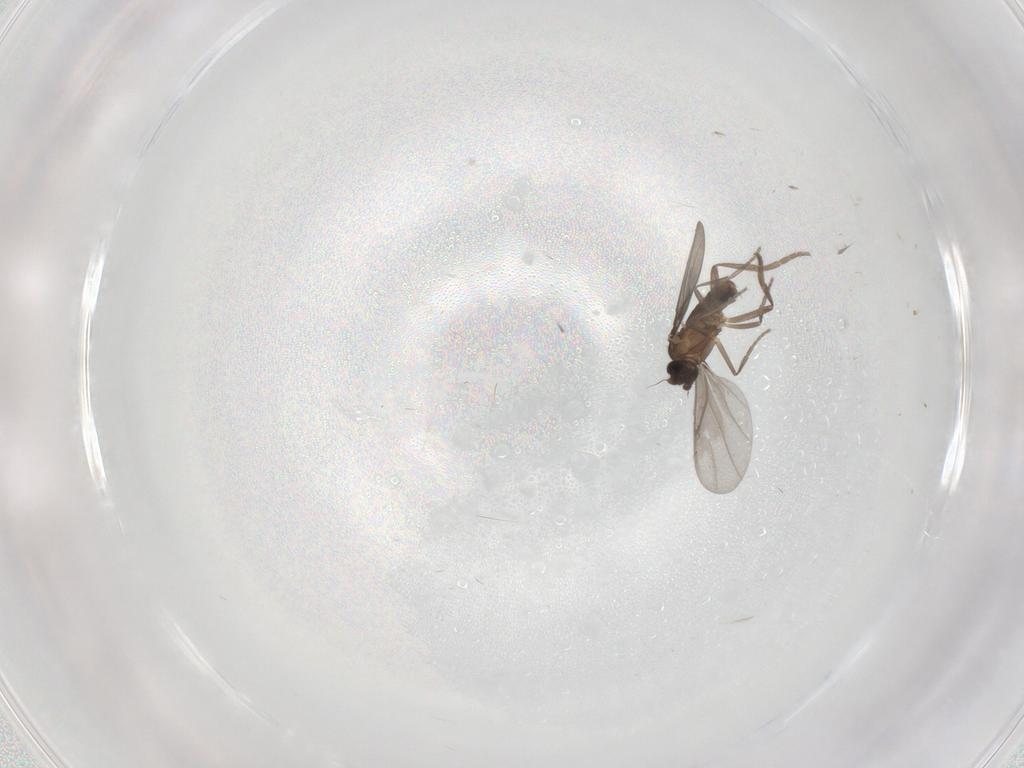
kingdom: Animalia
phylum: Arthropoda
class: Insecta
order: Diptera
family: Phoridae
